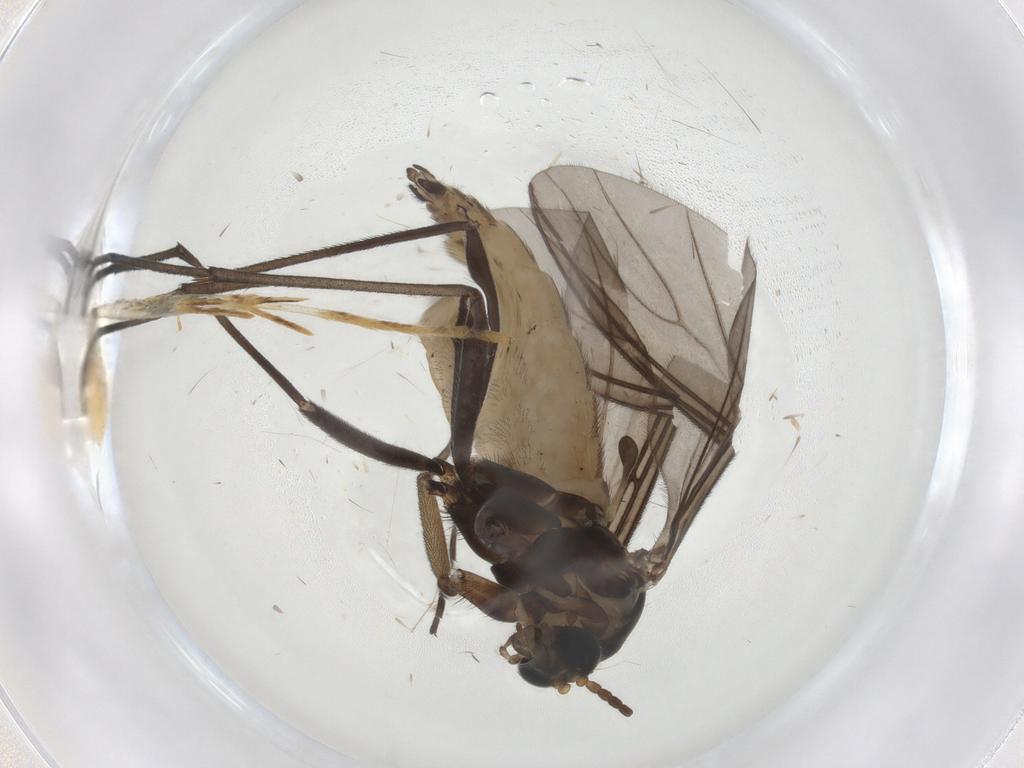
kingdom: Animalia
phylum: Arthropoda
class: Insecta
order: Diptera
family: Sciaridae
